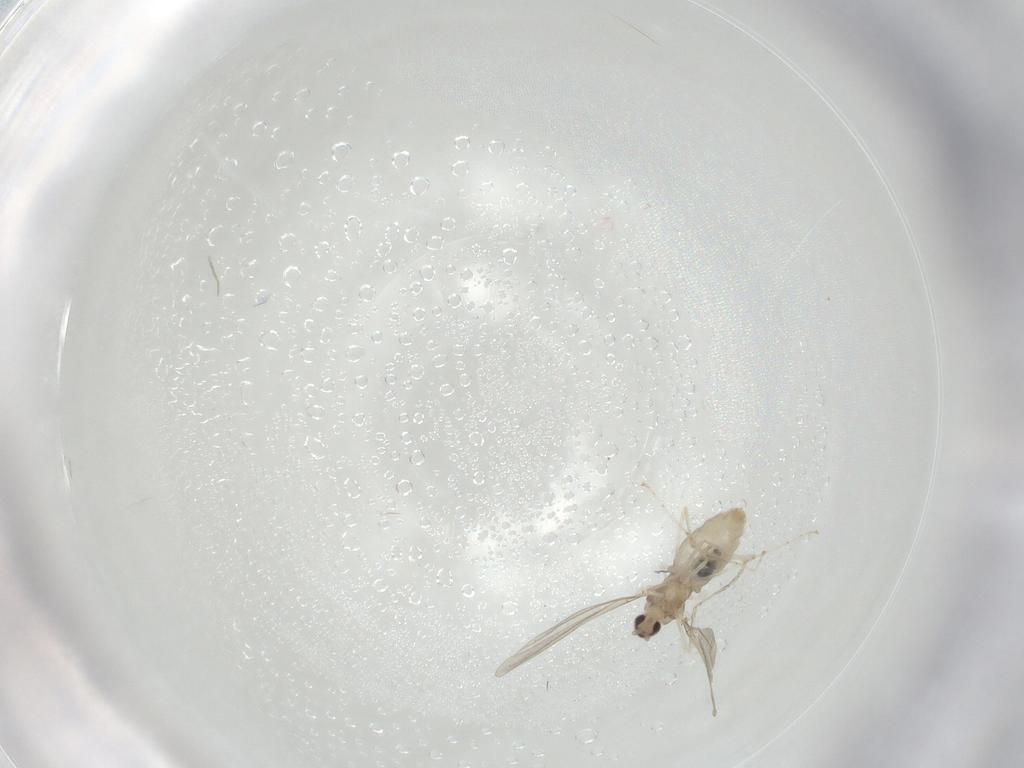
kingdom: Animalia
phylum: Arthropoda
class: Insecta
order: Diptera
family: Cecidomyiidae
